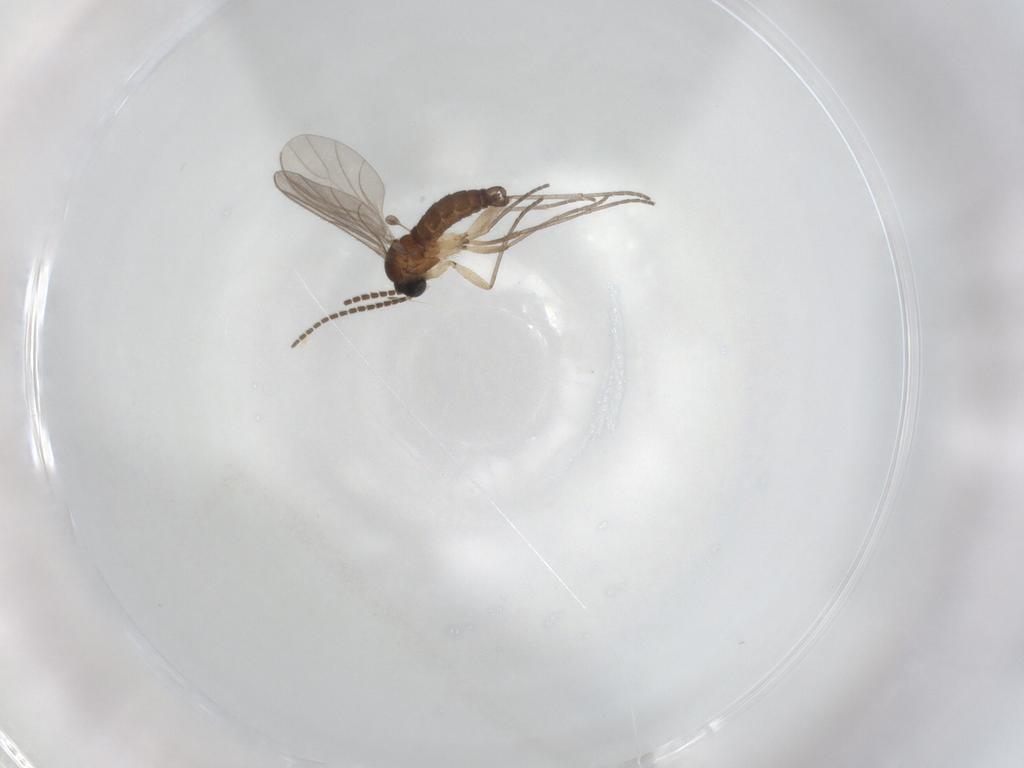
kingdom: Animalia
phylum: Arthropoda
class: Insecta
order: Diptera
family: Sciaridae
